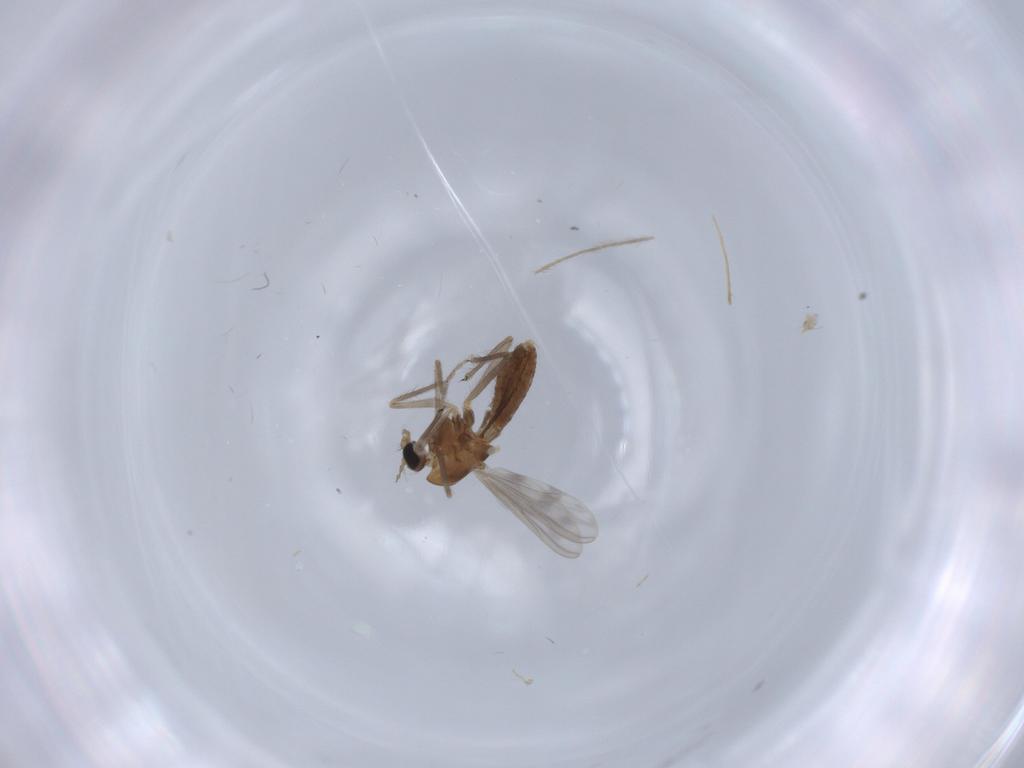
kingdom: Animalia
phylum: Arthropoda
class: Insecta
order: Diptera
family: Chironomidae
